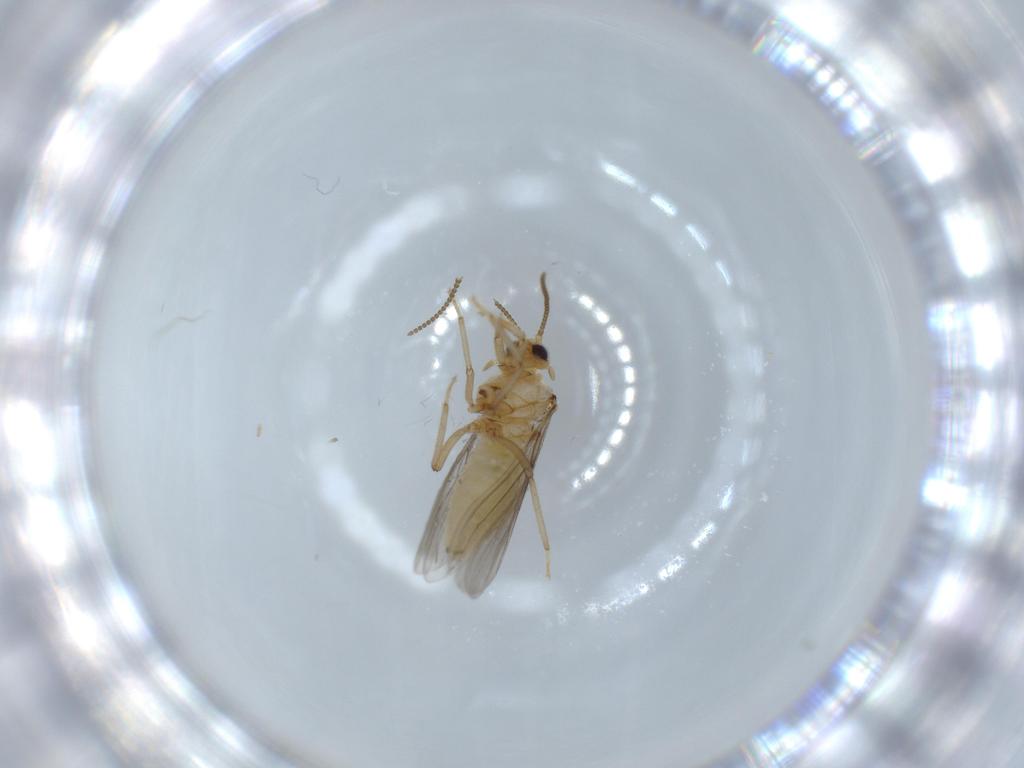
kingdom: Animalia
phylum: Arthropoda
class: Insecta
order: Neuroptera
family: Coniopterygidae
